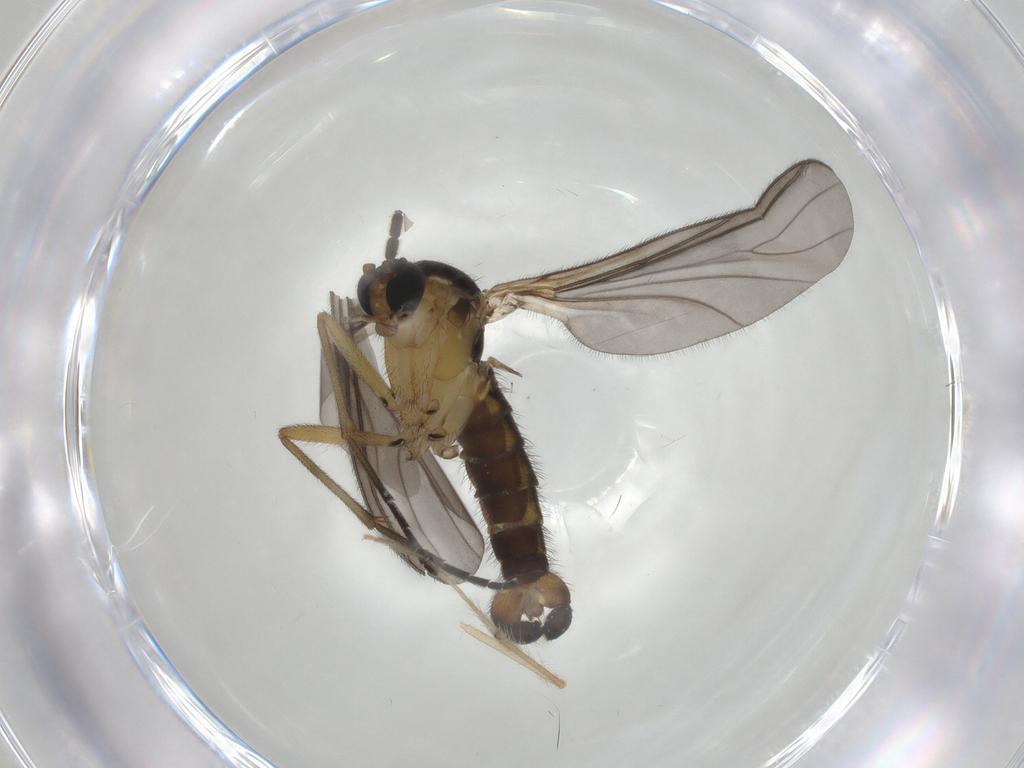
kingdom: Animalia
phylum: Arthropoda
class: Insecta
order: Diptera
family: Sciaridae
